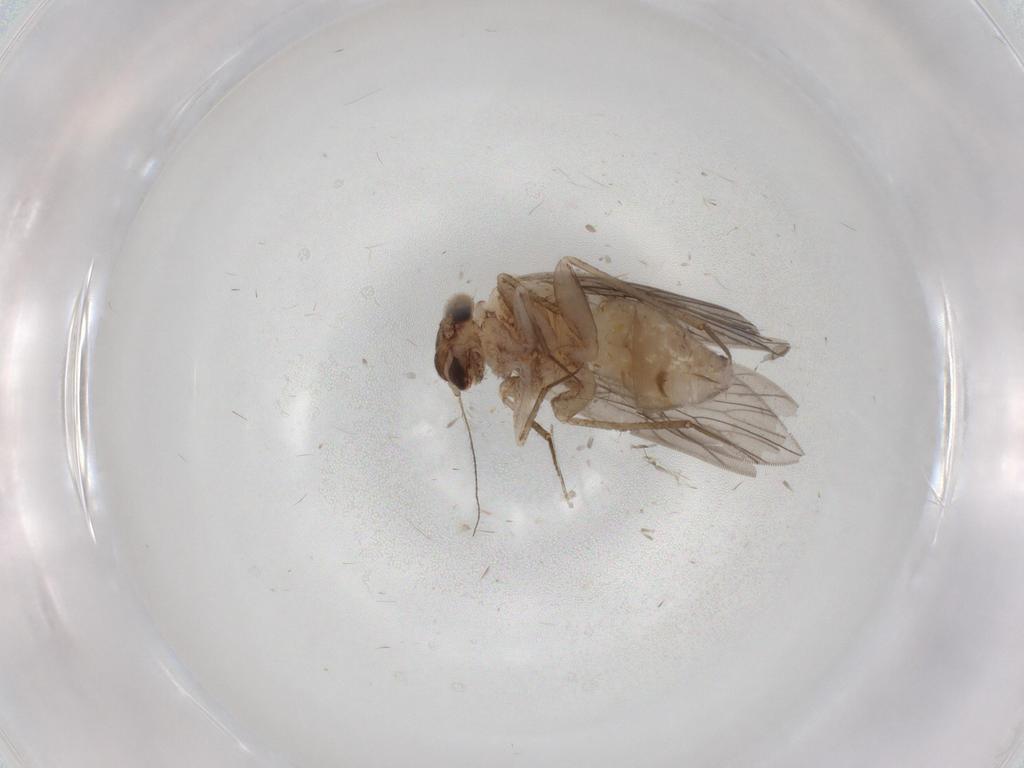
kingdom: Animalia
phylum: Arthropoda
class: Insecta
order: Psocodea
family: Lepidopsocidae
